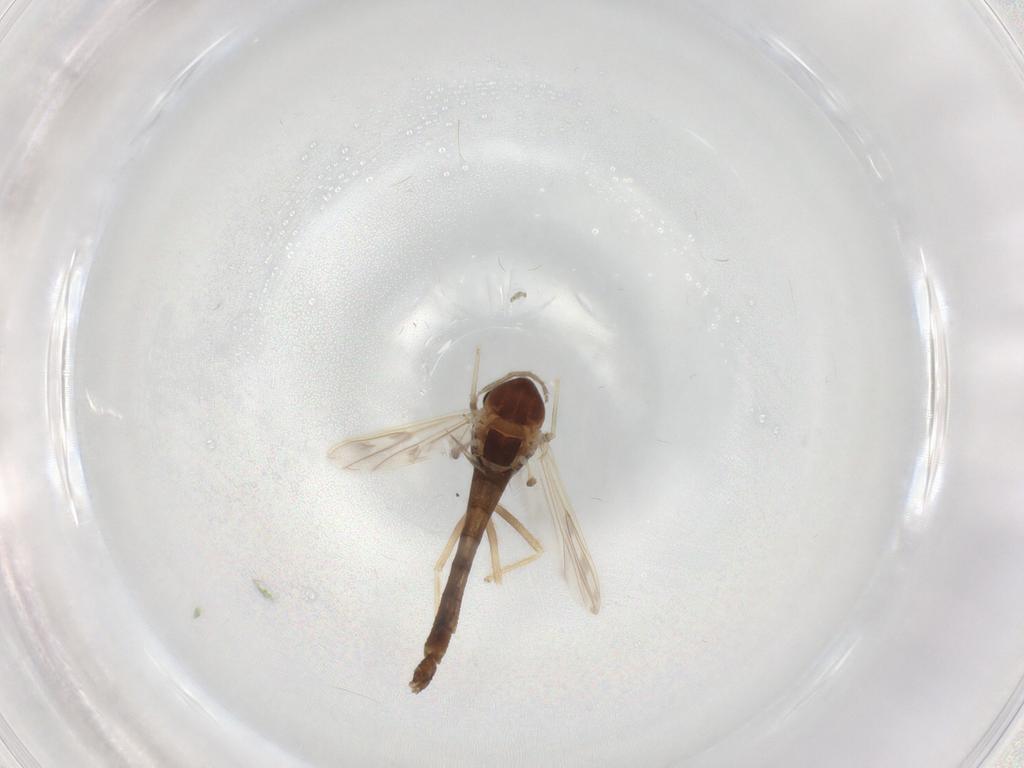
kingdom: Animalia
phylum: Arthropoda
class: Insecta
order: Diptera
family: Chironomidae
